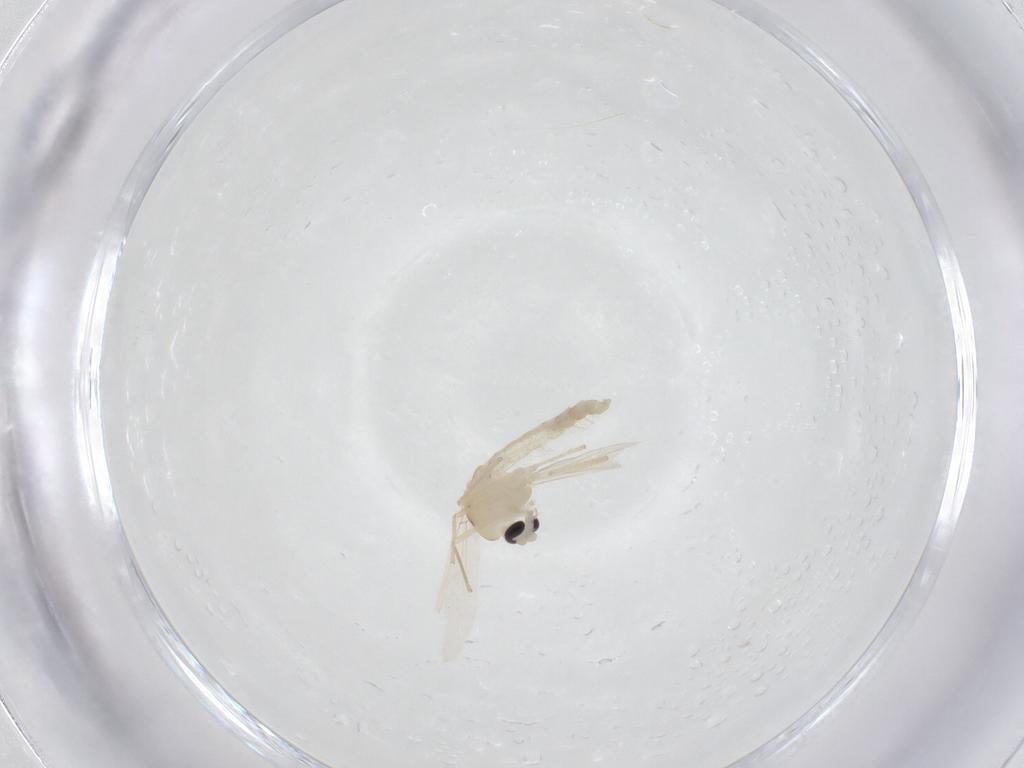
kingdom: Animalia
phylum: Arthropoda
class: Insecta
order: Diptera
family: Chironomidae
